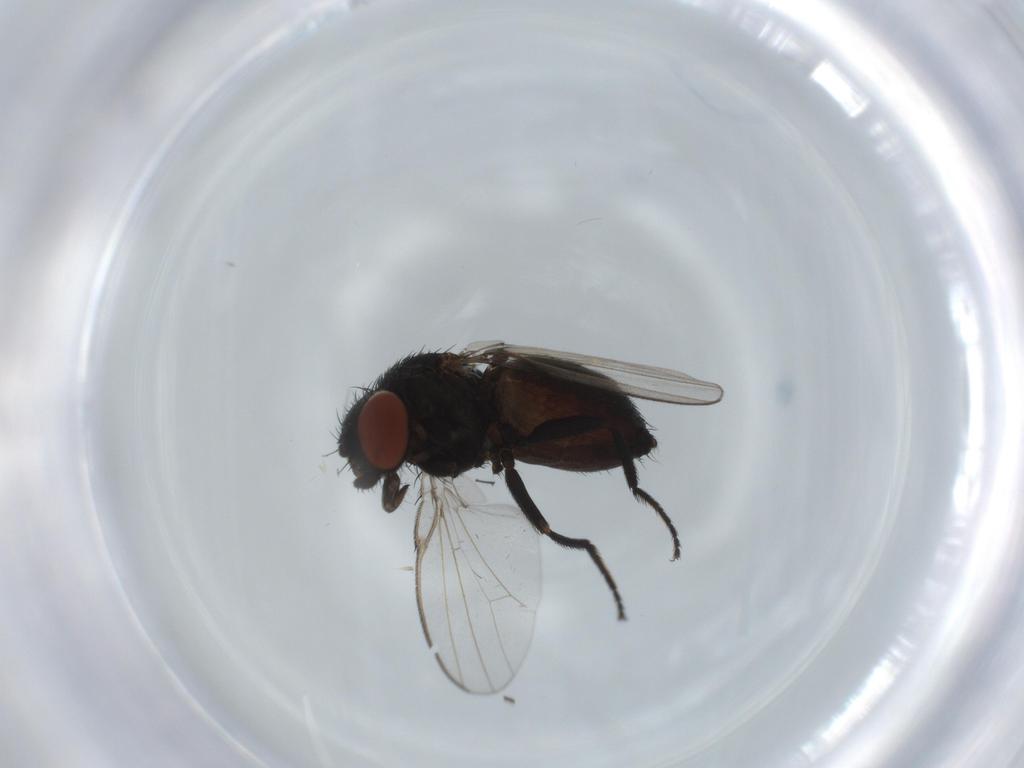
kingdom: Animalia
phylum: Arthropoda
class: Insecta
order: Diptera
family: Milichiidae
